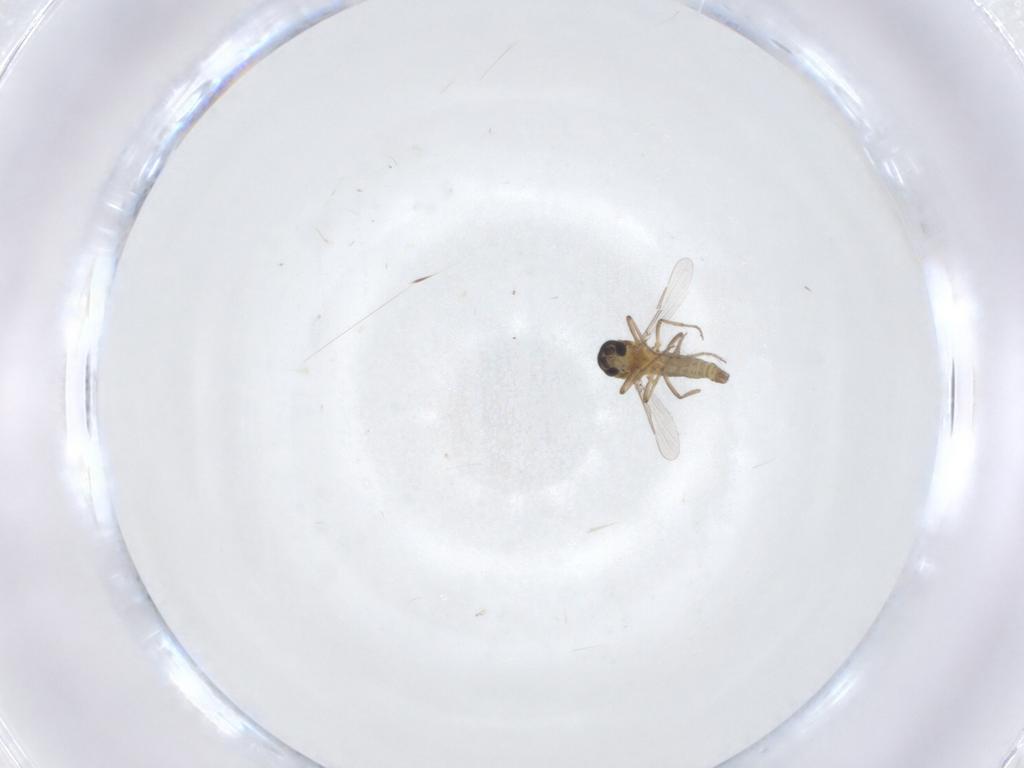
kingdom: Animalia
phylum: Arthropoda
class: Insecta
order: Diptera
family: Ceratopogonidae
